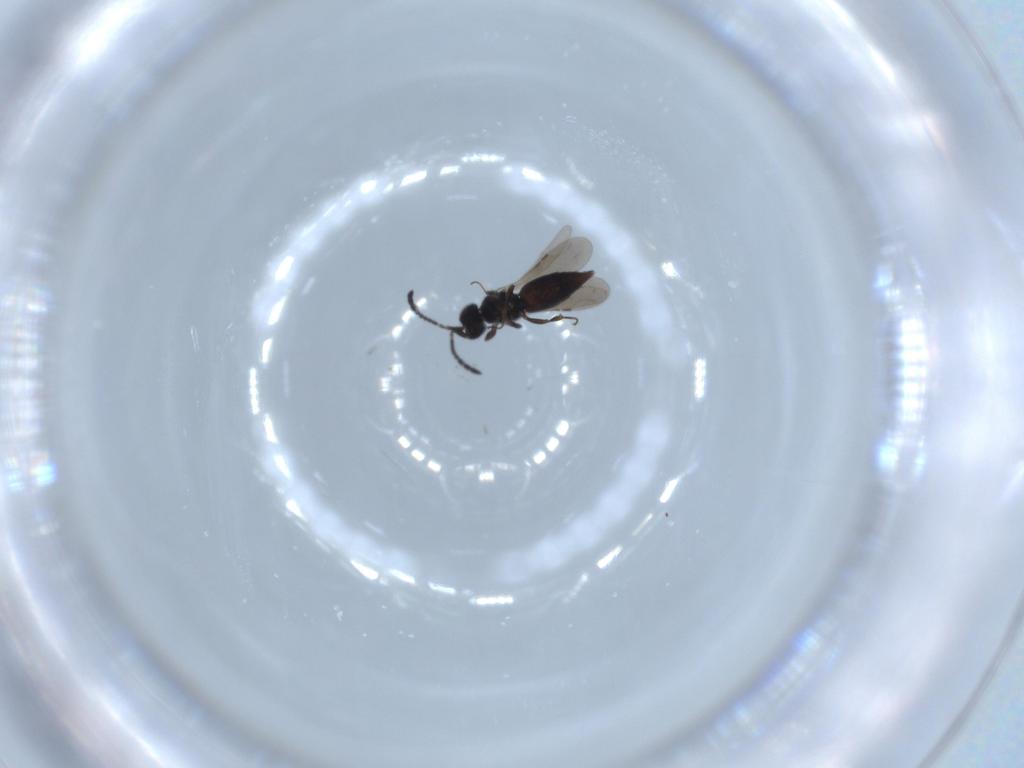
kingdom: Animalia
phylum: Arthropoda
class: Insecta
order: Hymenoptera
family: Ceraphronidae
